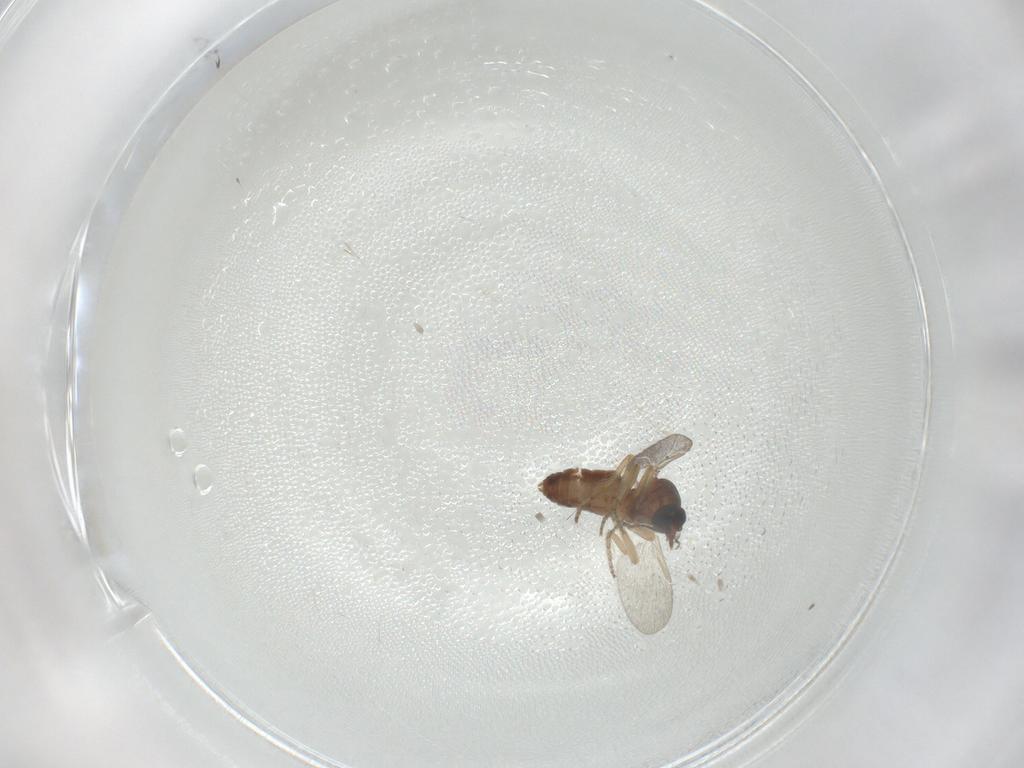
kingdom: Animalia
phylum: Arthropoda
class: Insecta
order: Diptera
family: Ceratopogonidae
